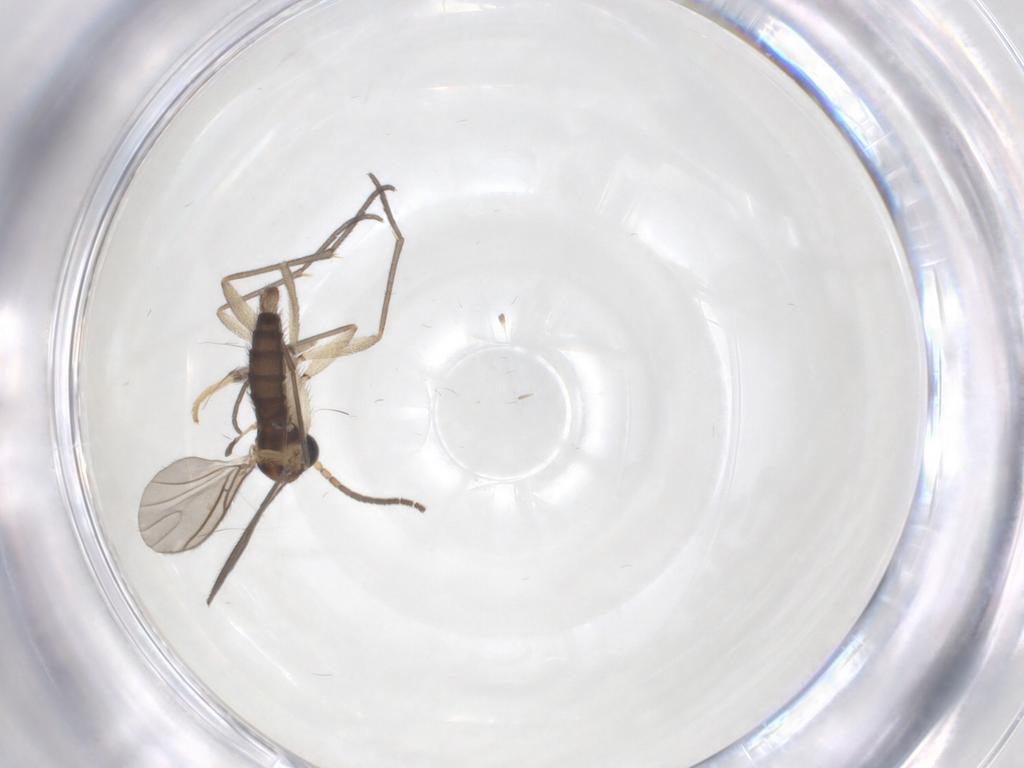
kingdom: Animalia
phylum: Arthropoda
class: Insecta
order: Diptera
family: Sciaridae
